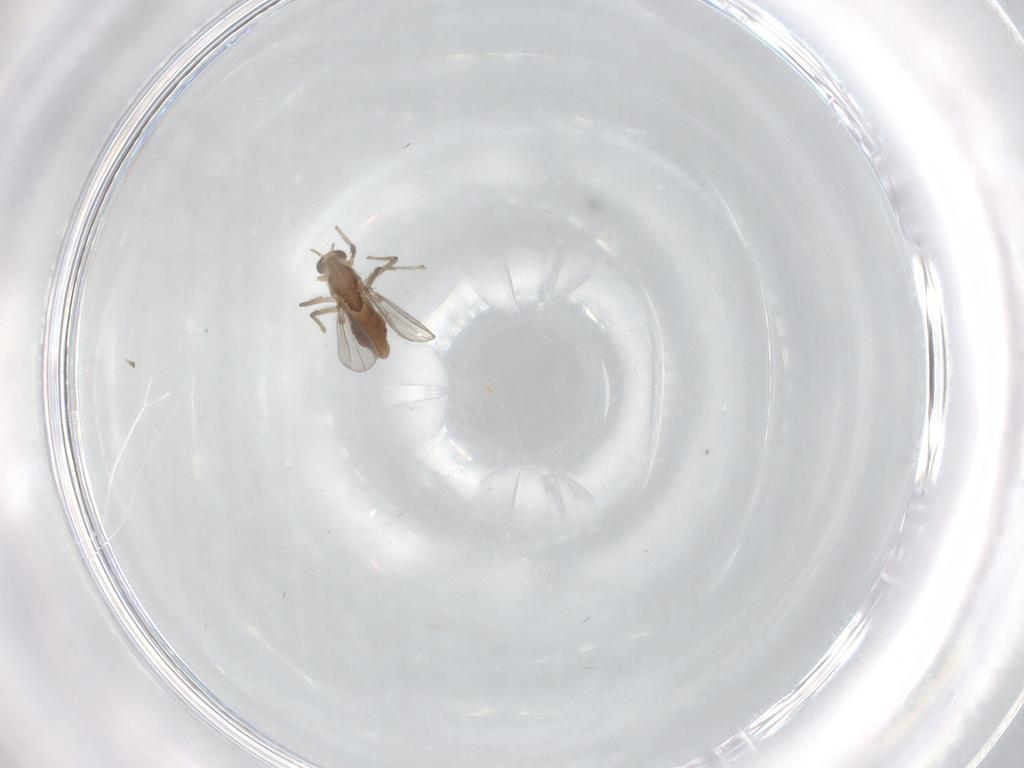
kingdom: Animalia
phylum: Arthropoda
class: Insecta
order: Diptera
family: Chironomidae
